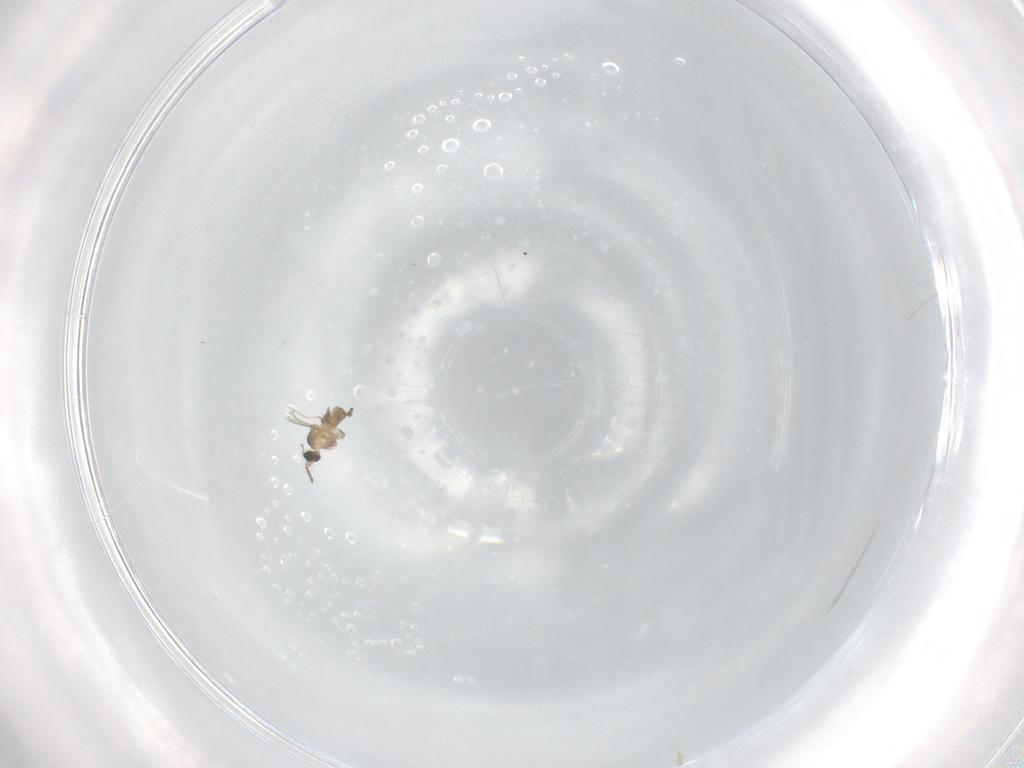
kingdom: Animalia
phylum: Arthropoda
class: Insecta
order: Diptera
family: Cecidomyiidae
